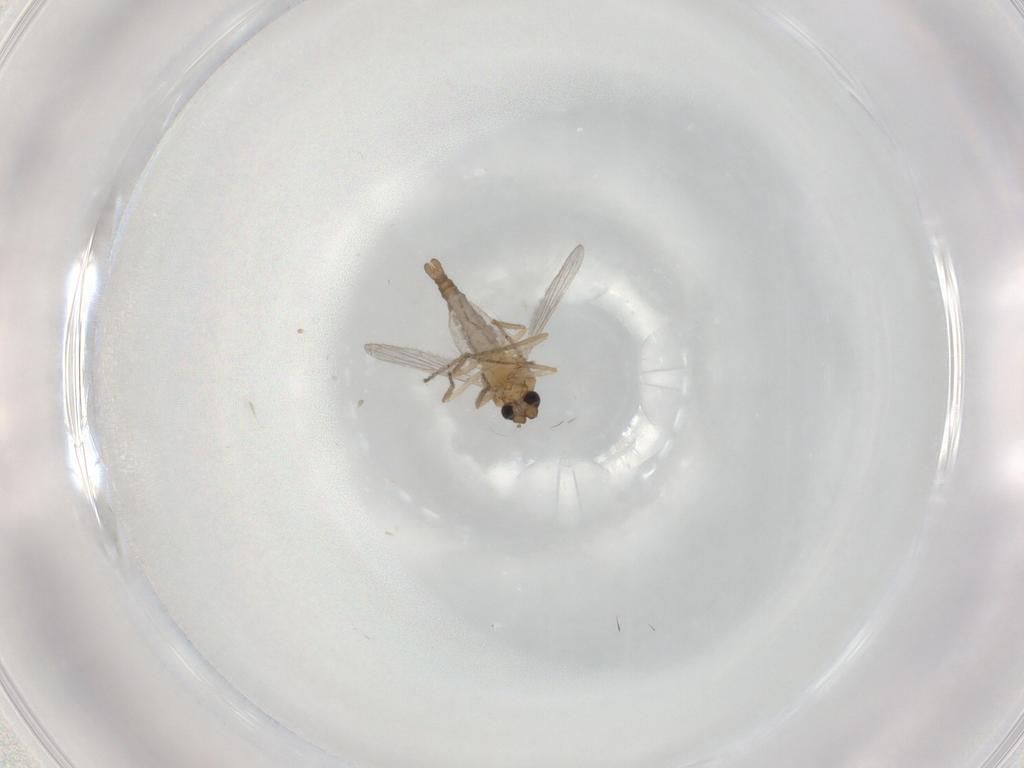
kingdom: Animalia
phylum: Arthropoda
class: Insecta
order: Diptera
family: Ceratopogonidae
